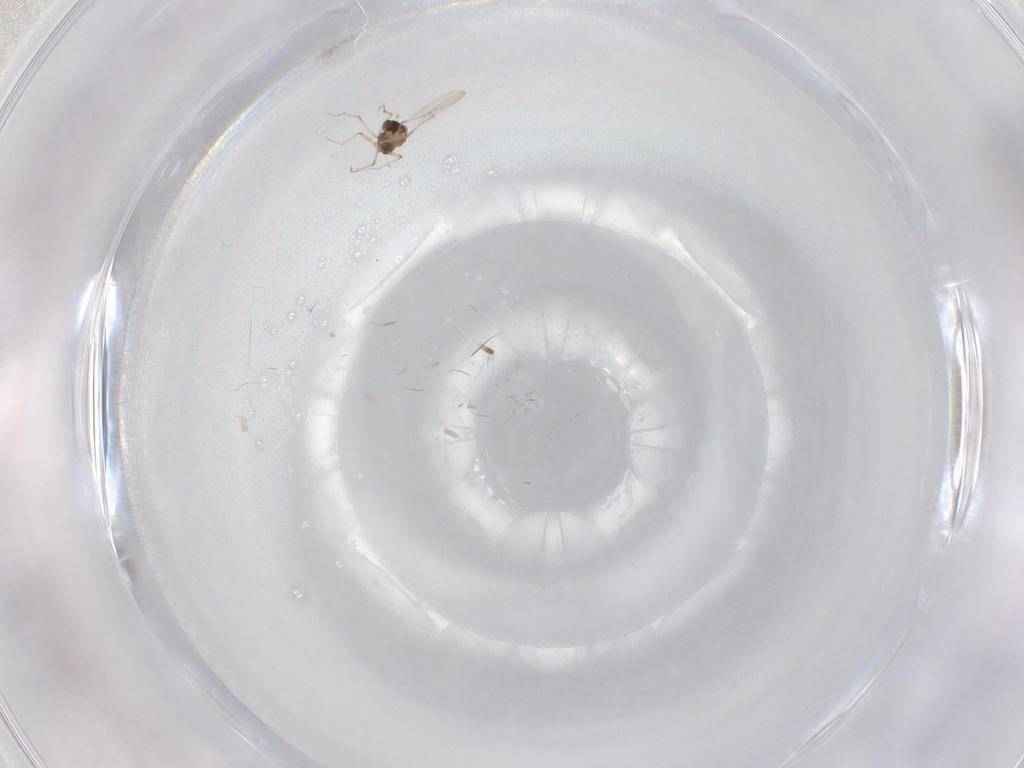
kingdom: Animalia
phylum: Arthropoda
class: Insecta
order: Diptera
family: Chironomidae
